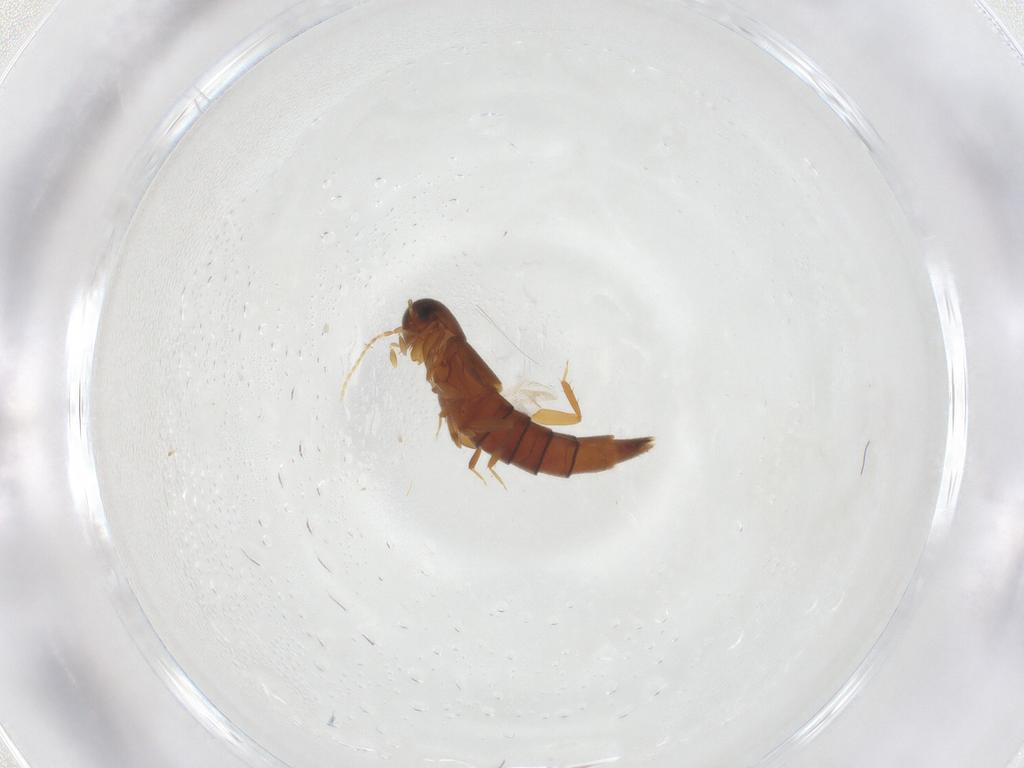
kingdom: Animalia
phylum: Arthropoda
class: Insecta
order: Coleoptera
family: Staphylinidae
